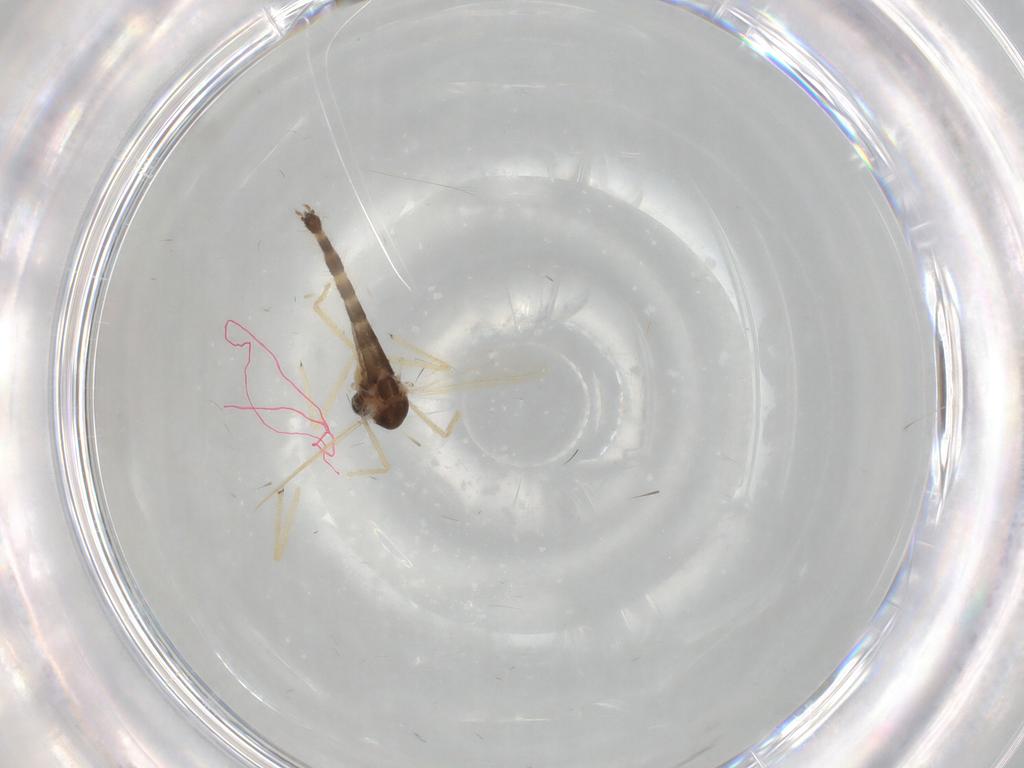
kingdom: Animalia
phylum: Arthropoda
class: Insecta
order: Diptera
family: Chironomidae
